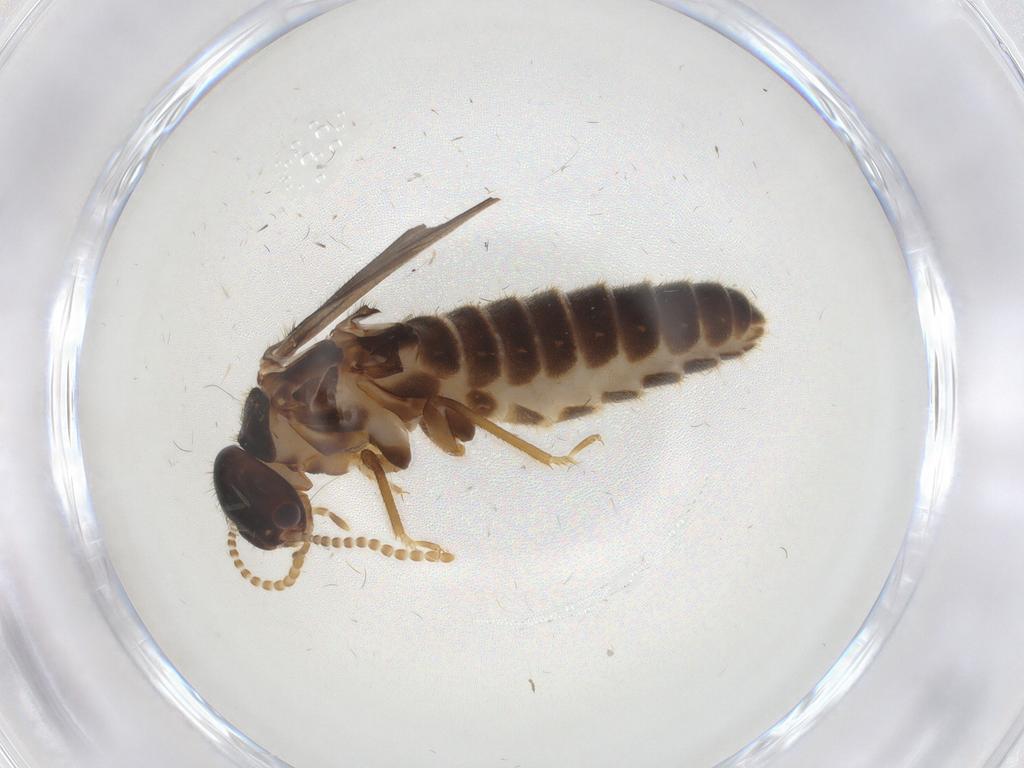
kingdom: Animalia
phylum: Arthropoda
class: Insecta
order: Blattodea
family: Termitidae
